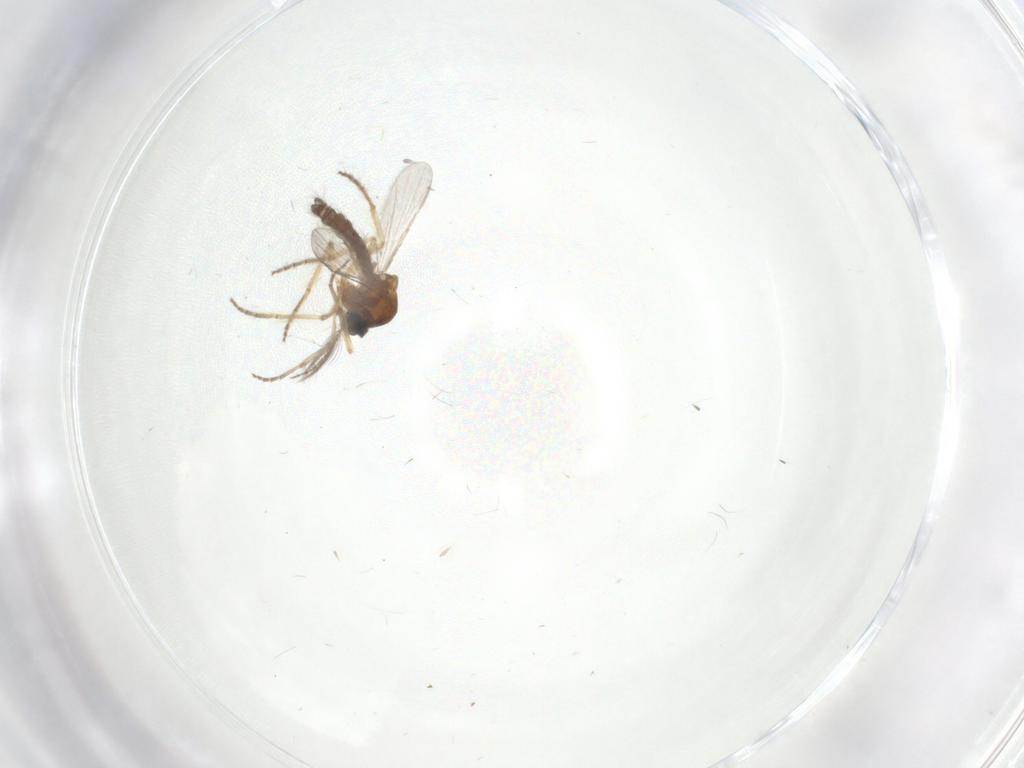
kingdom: Animalia
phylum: Arthropoda
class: Insecta
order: Diptera
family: Ceratopogonidae
